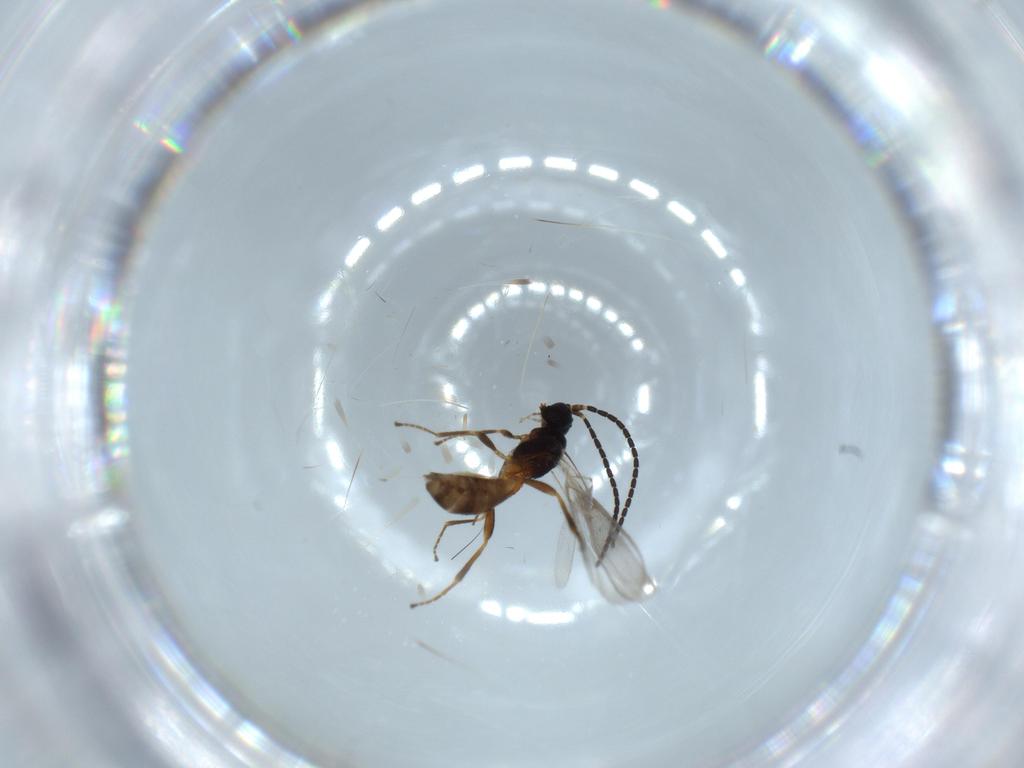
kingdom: Animalia
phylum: Arthropoda
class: Insecta
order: Hymenoptera
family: Braconidae
